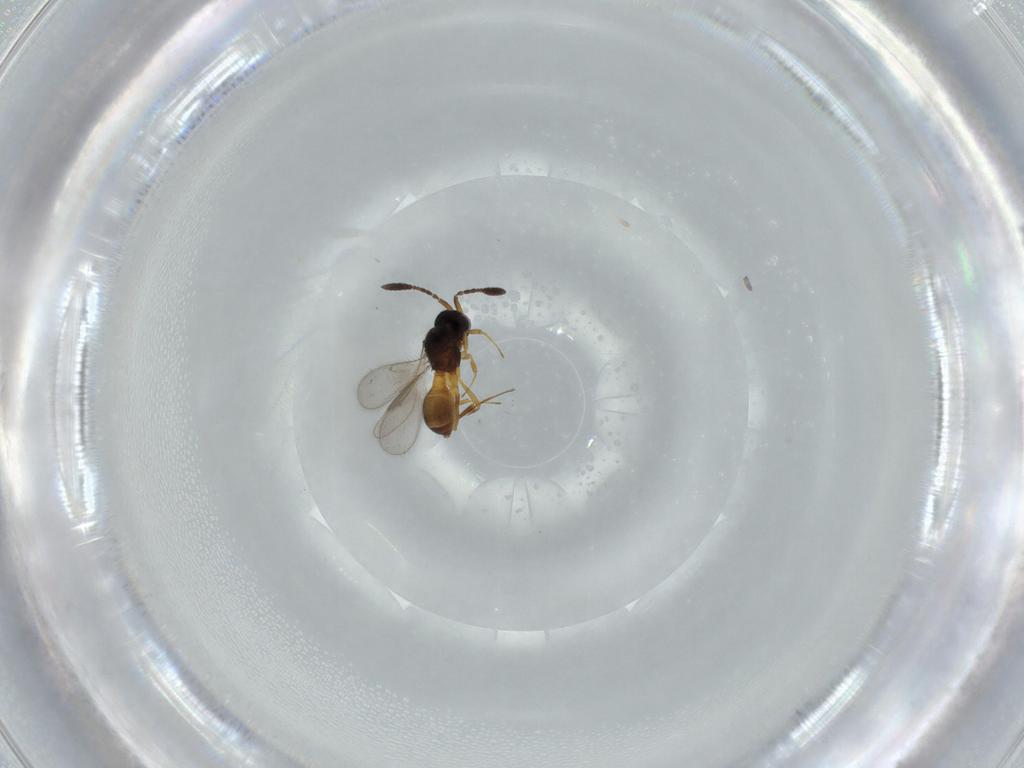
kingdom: Animalia
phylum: Arthropoda
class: Insecta
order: Hymenoptera
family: Scelionidae
